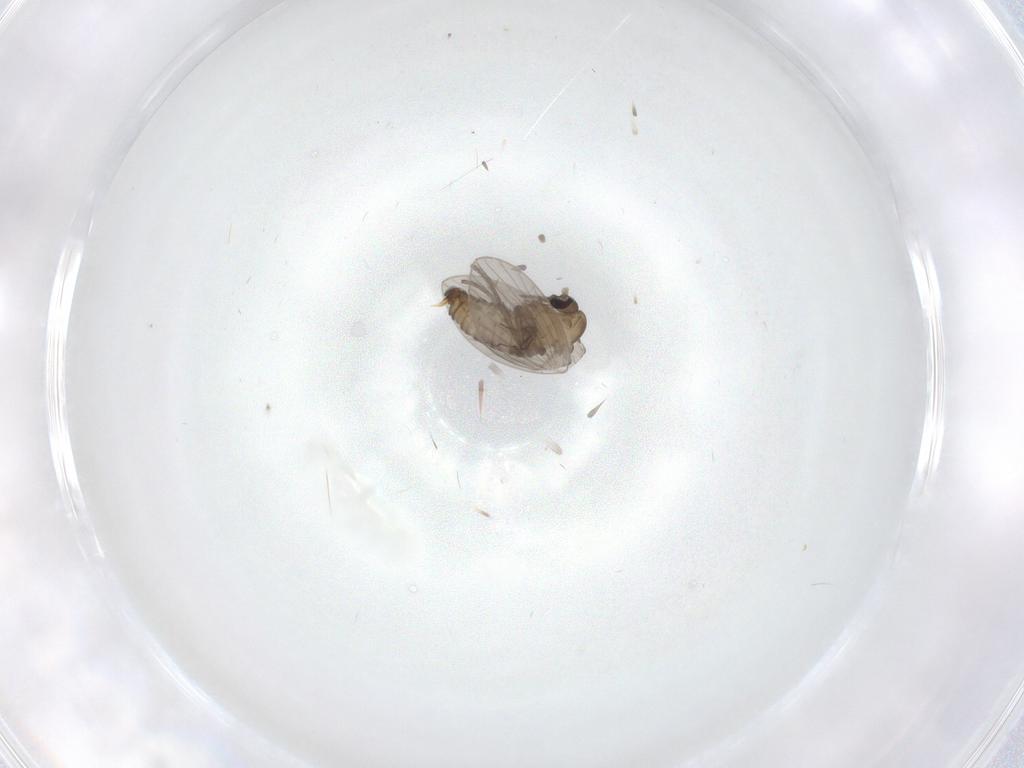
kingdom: Animalia
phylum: Arthropoda
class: Insecta
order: Diptera
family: Psychodidae
